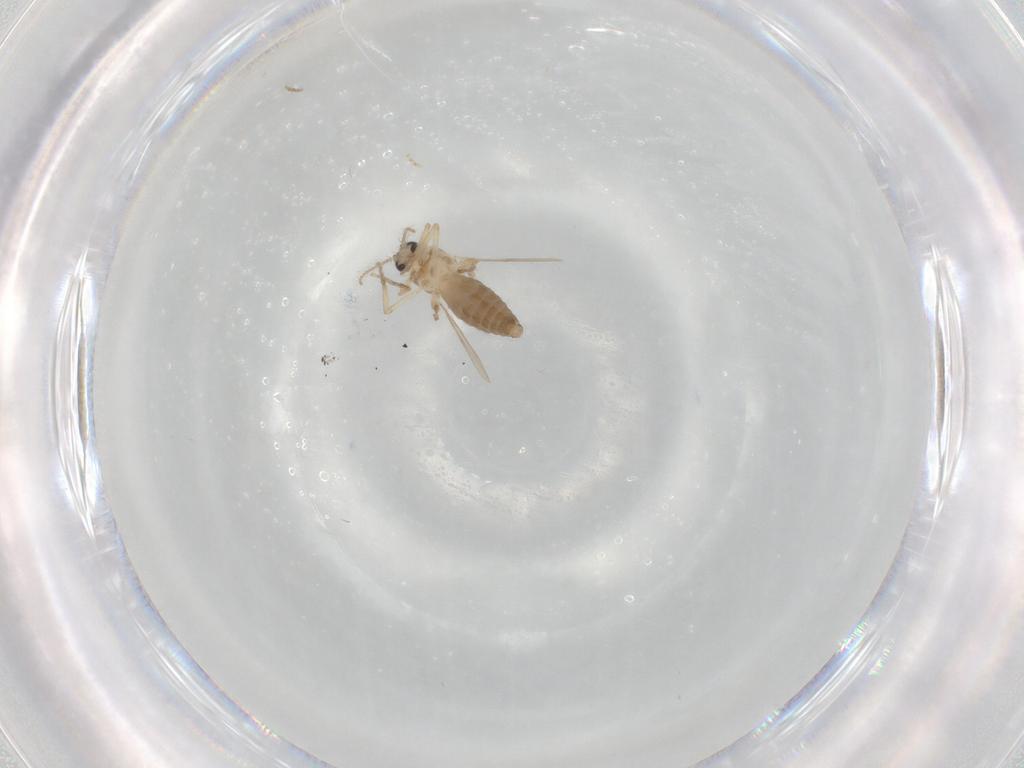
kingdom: Animalia
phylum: Arthropoda
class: Insecta
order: Diptera
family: Ceratopogonidae
